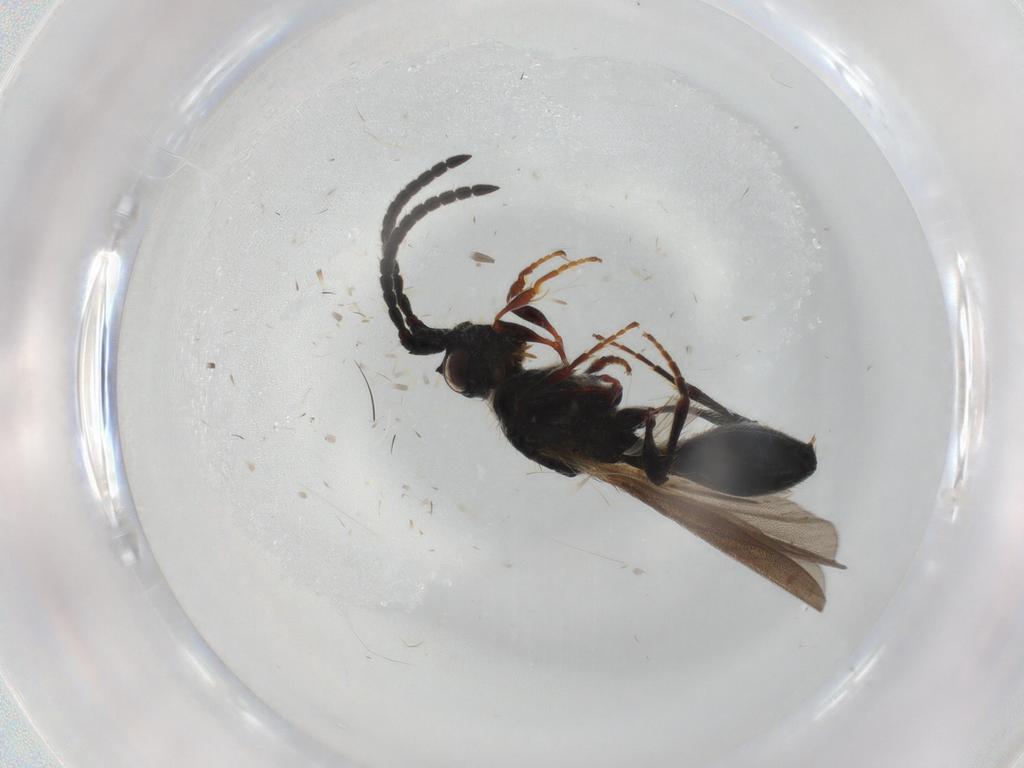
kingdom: Animalia
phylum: Arthropoda
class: Insecta
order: Hymenoptera
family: Diapriidae
